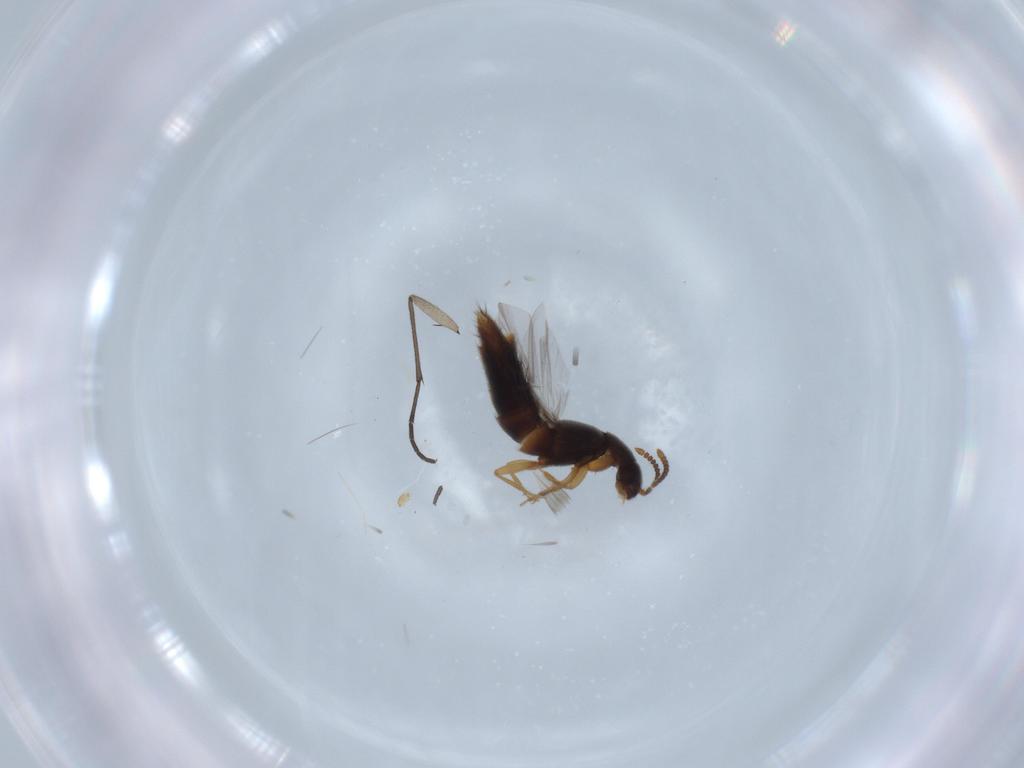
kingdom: Animalia
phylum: Arthropoda
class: Insecta
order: Coleoptera
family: Staphylinidae
